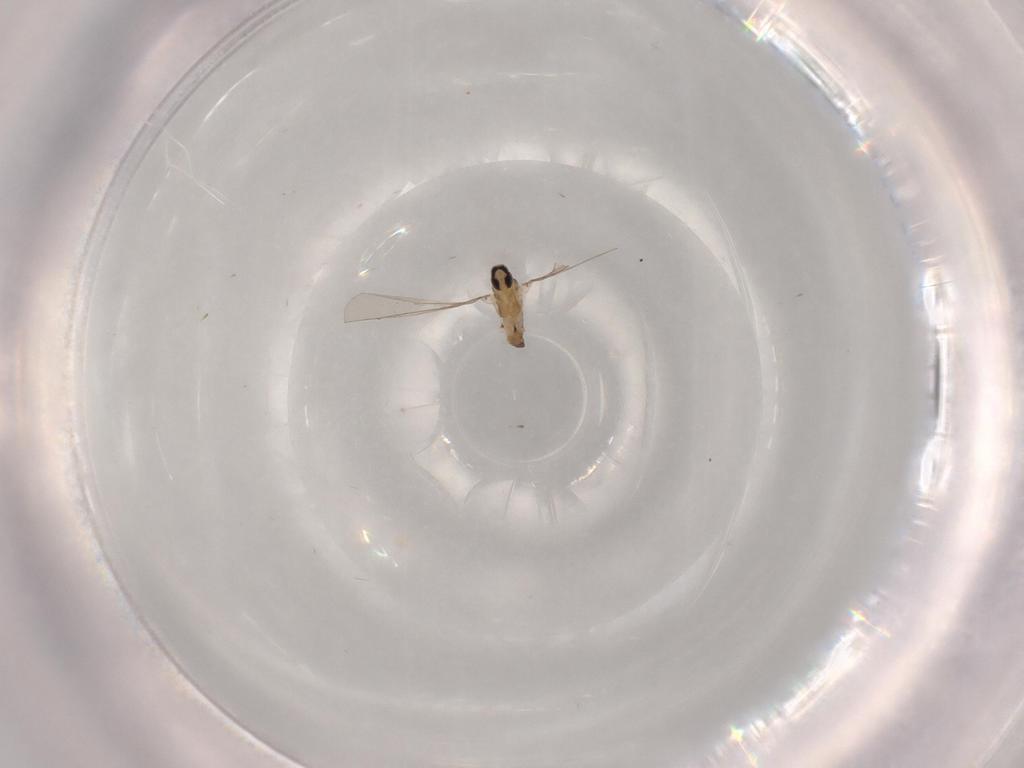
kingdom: Animalia
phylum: Arthropoda
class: Insecta
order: Diptera
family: Cecidomyiidae
